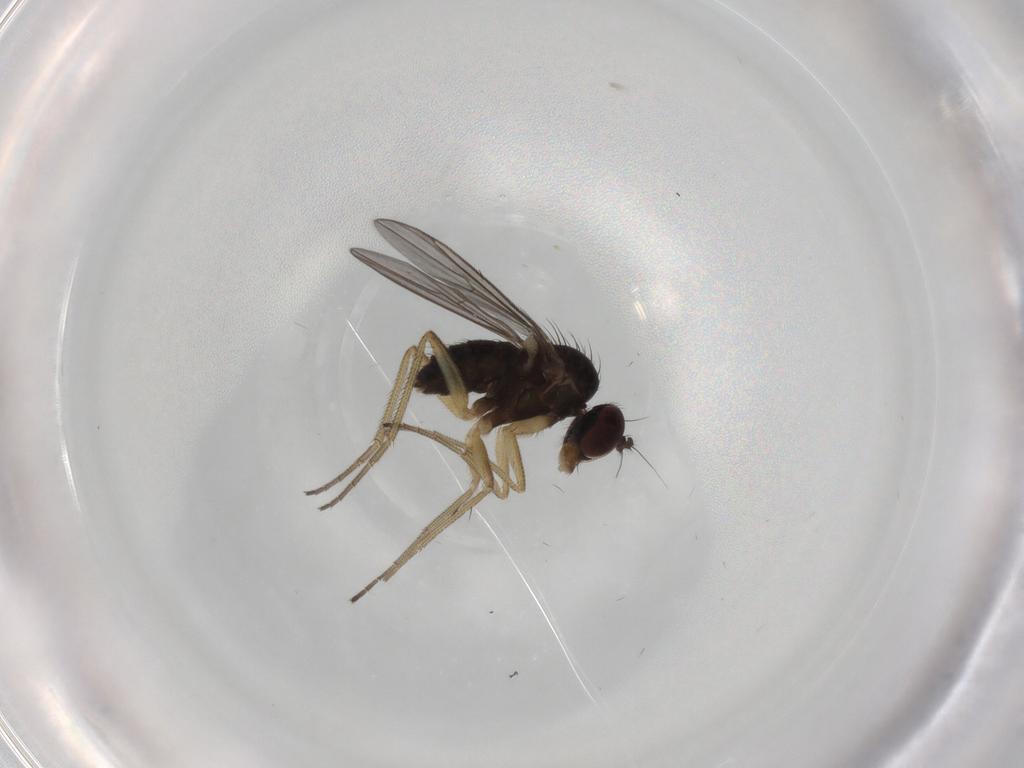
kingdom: Animalia
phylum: Arthropoda
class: Insecta
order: Diptera
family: Dolichopodidae
